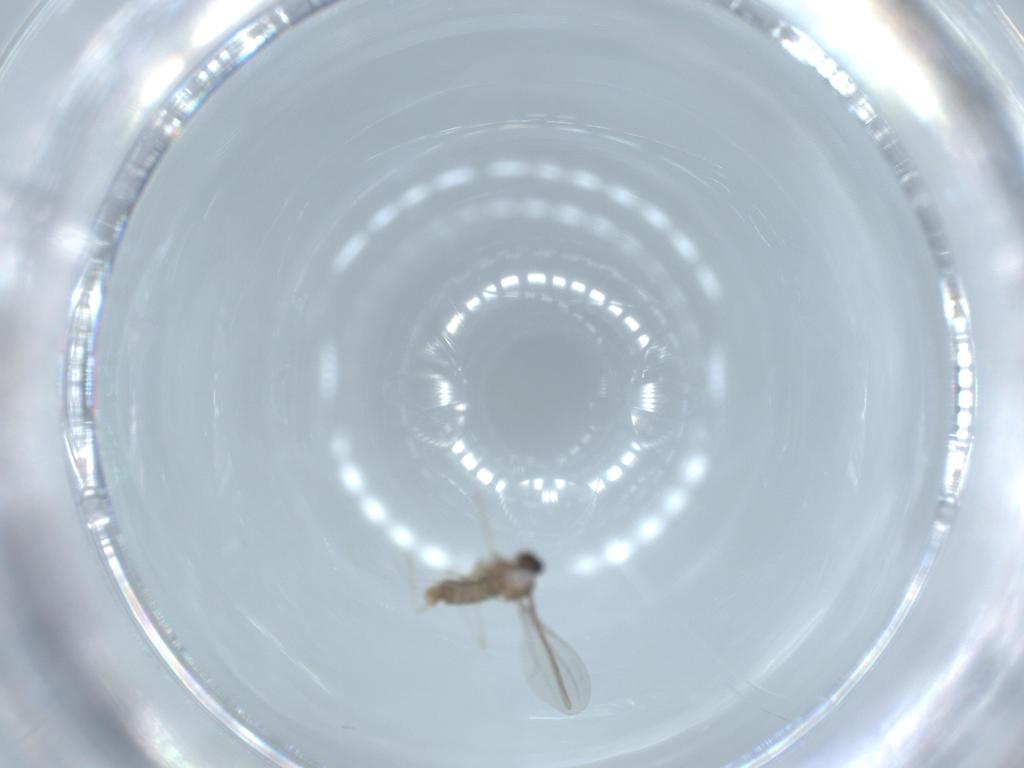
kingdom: Animalia
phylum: Arthropoda
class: Insecta
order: Diptera
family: Cecidomyiidae
